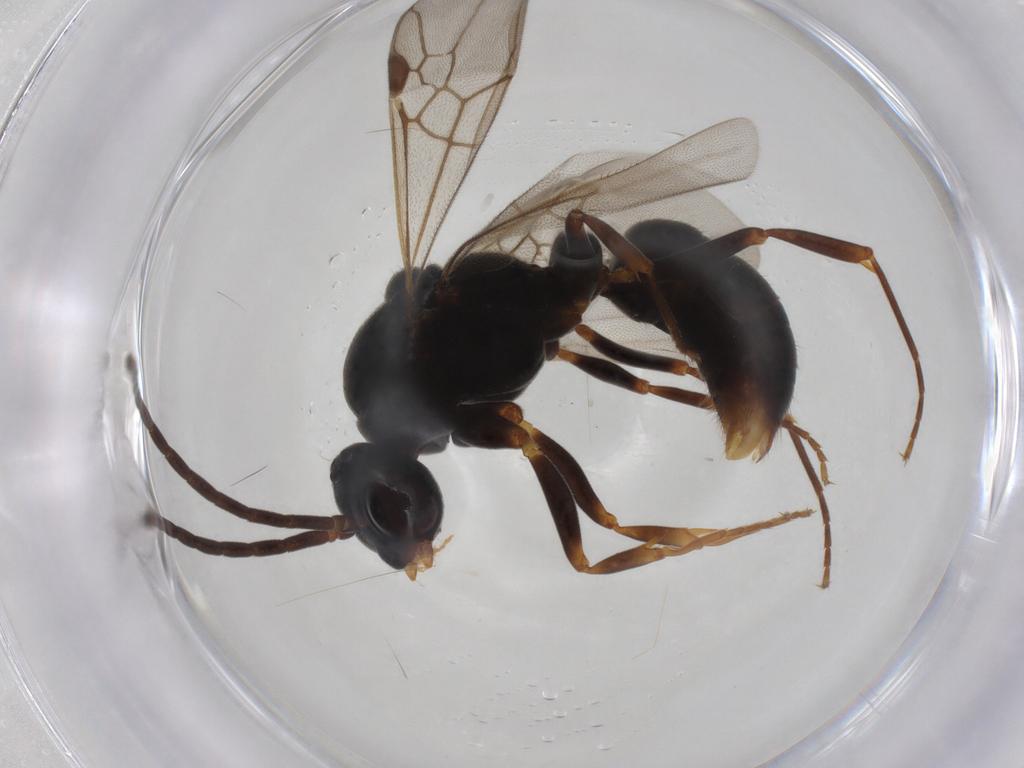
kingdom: Animalia
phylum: Arthropoda
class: Insecta
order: Hymenoptera
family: Formicidae
